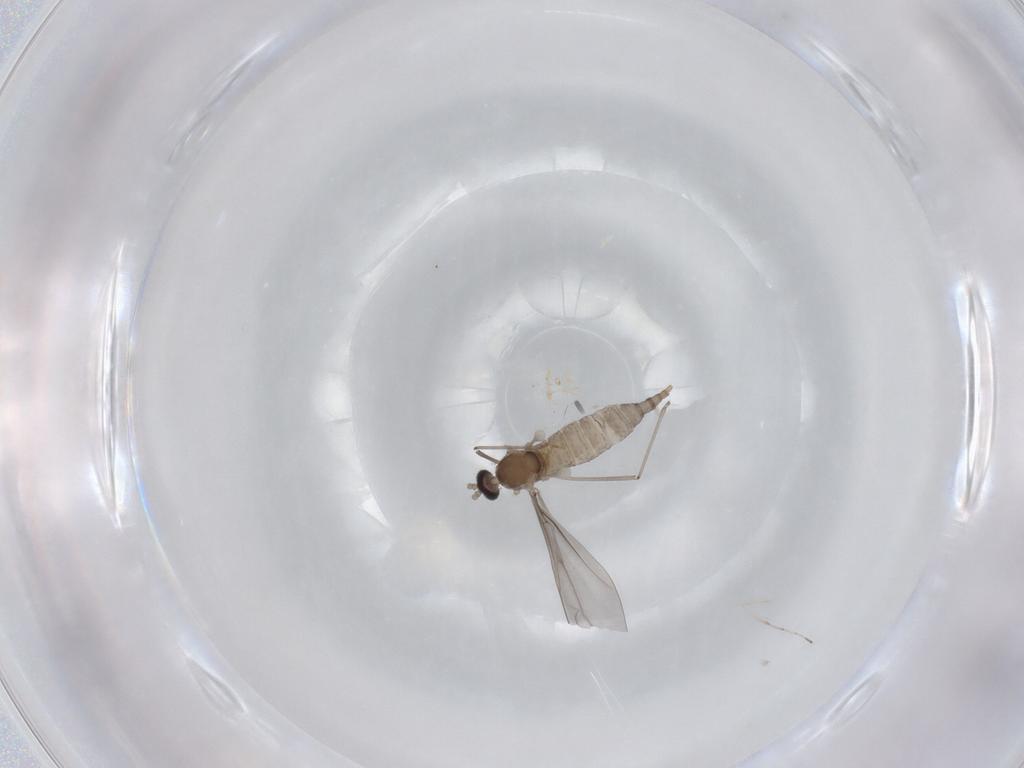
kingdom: Animalia
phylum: Arthropoda
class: Insecta
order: Diptera
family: Cecidomyiidae
